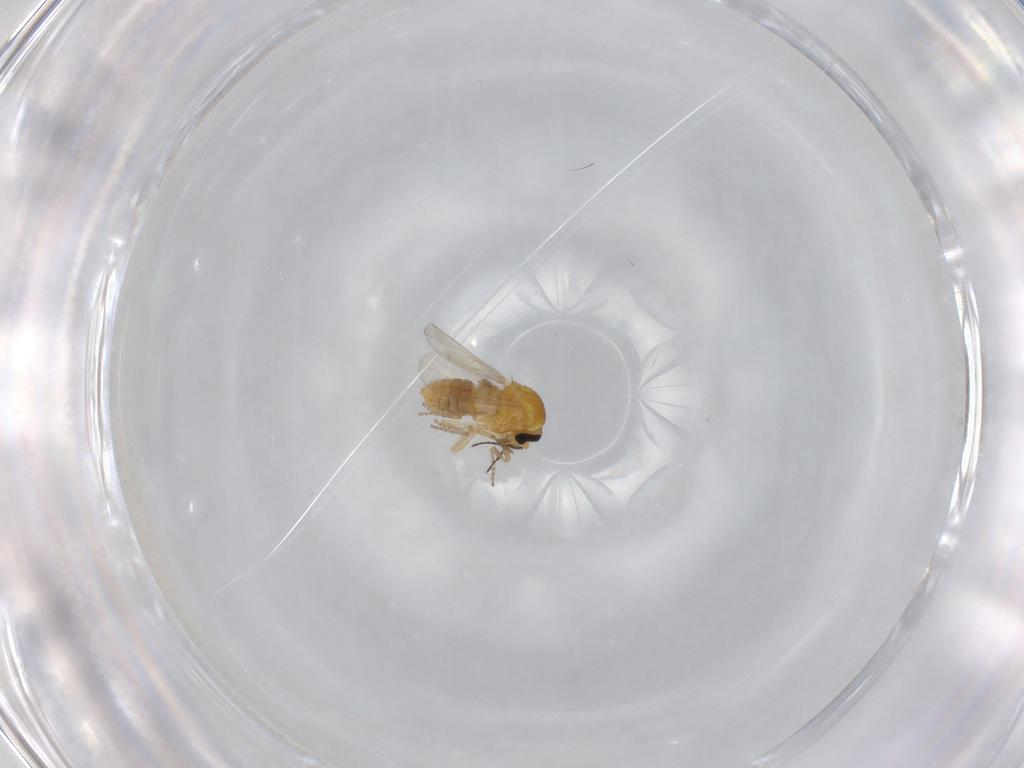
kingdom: Animalia
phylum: Arthropoda
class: Insecta
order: Diptera
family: Ceratopogonidae
